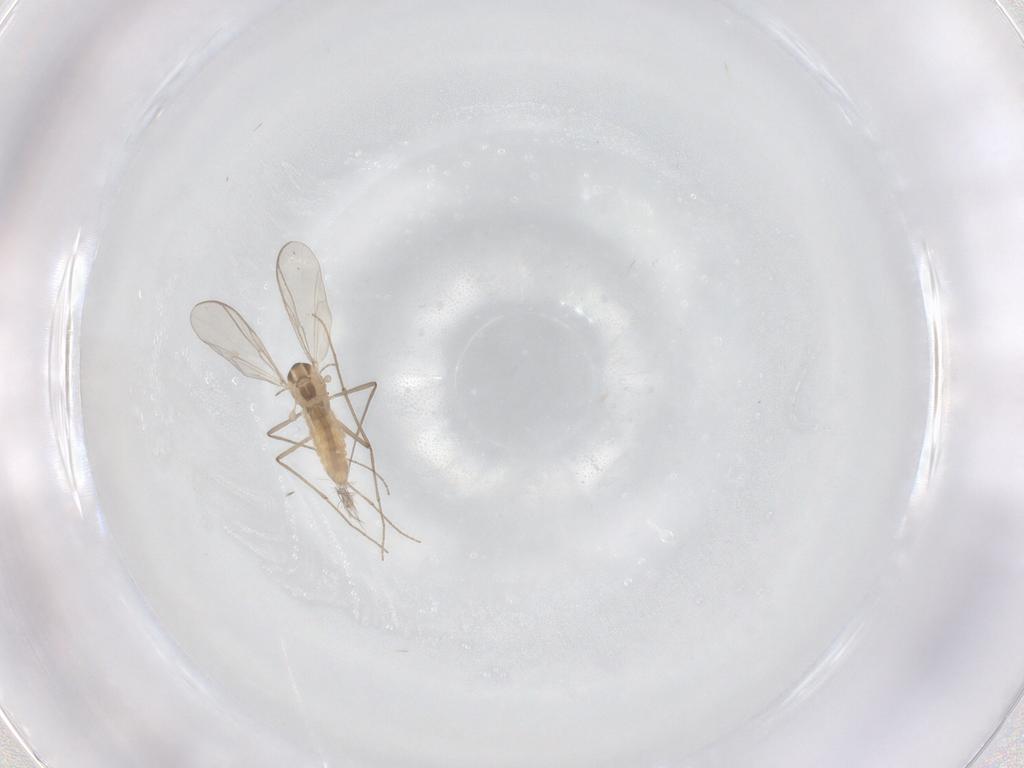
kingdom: Animalia
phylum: Arthropoda
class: Insecta
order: Diptera
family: Chironomidae
